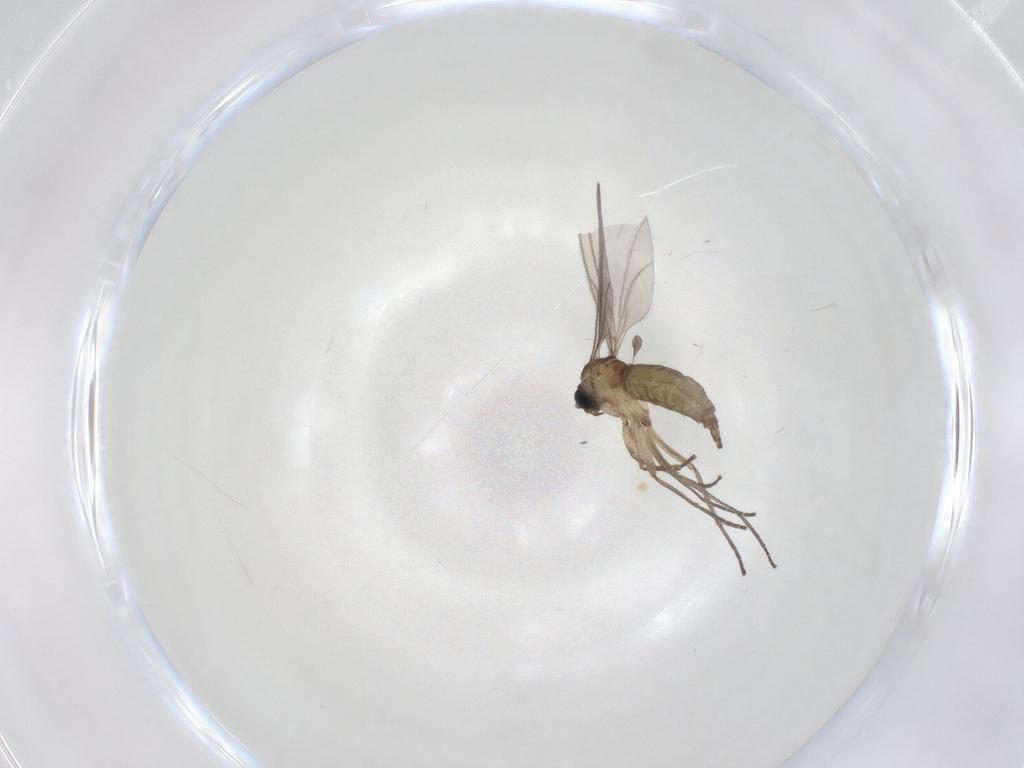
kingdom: Animalia
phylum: Arthropoda
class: Insecta
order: Diptera
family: Sciaridae
